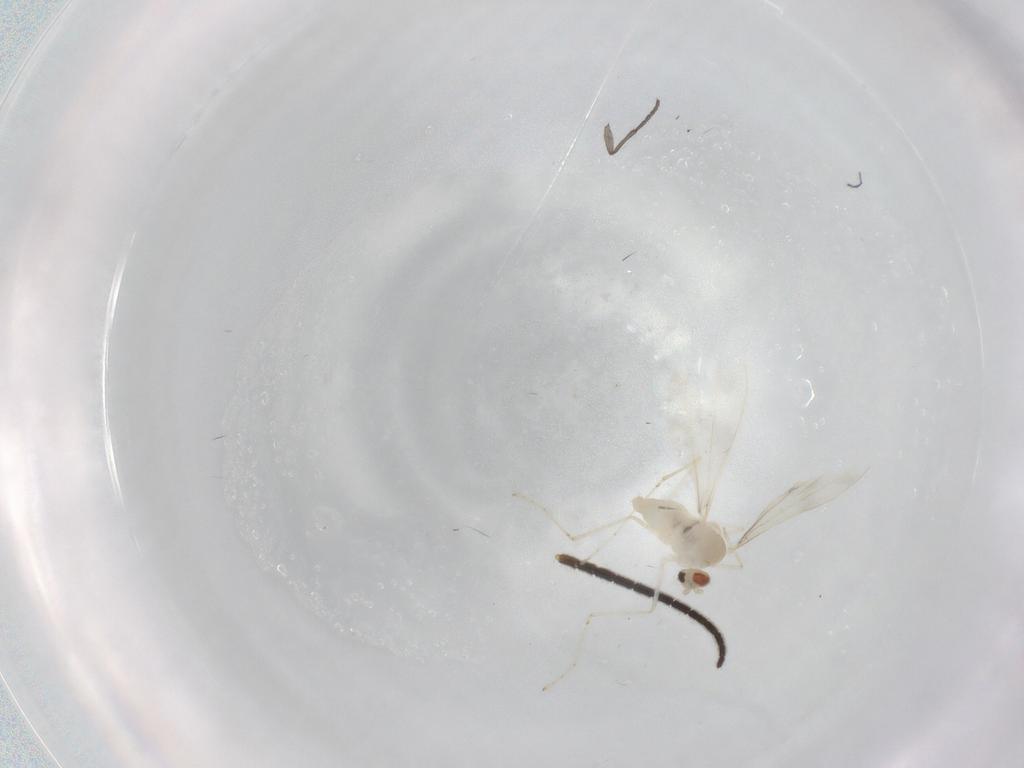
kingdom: Animalia
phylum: Arthropoda
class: Insecta
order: Diptera
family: Cecidomyiidae
